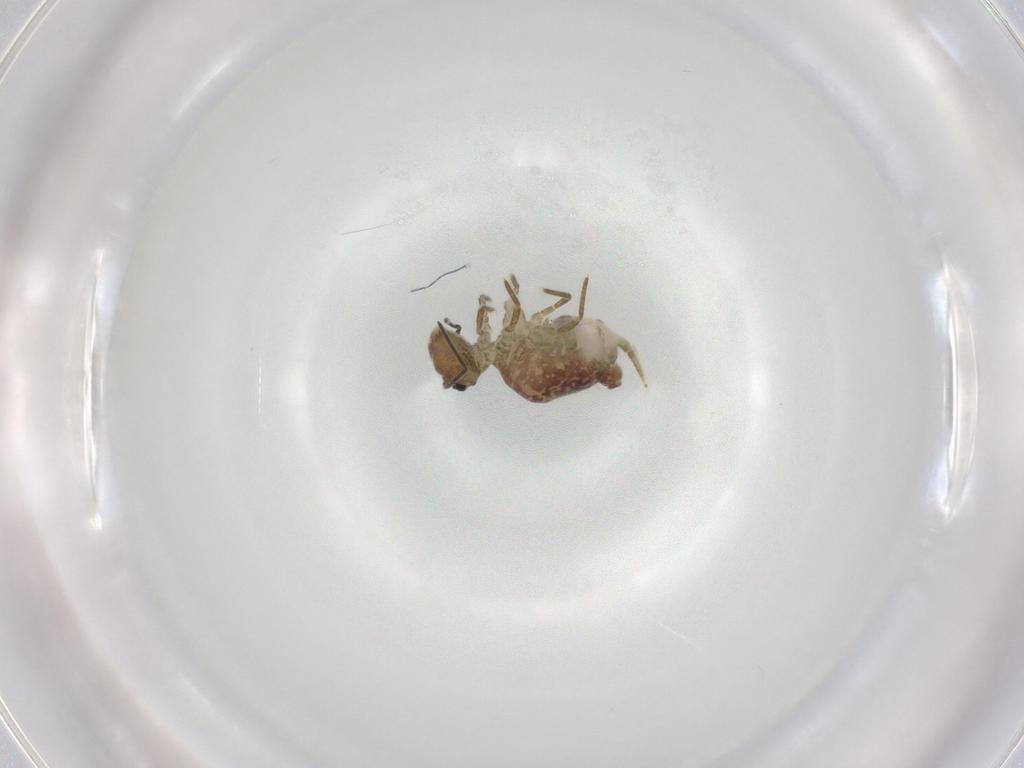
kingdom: Animalia
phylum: Arthropoda
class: Collembola
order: Symphypleona
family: Sminthuridae
